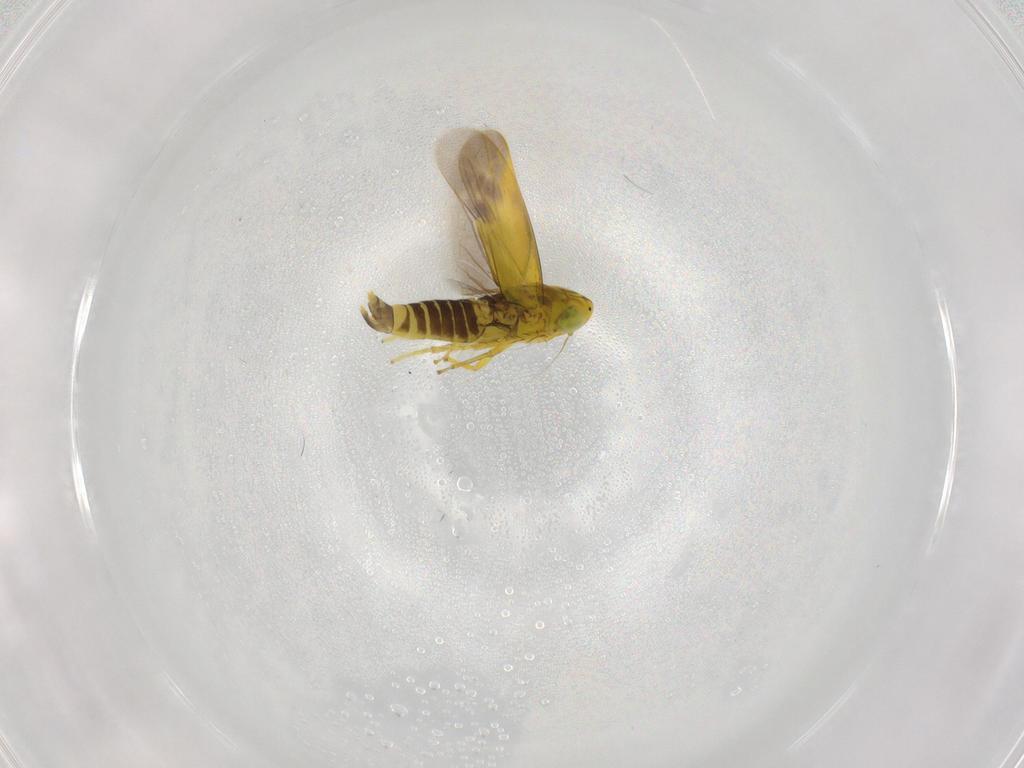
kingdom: Animalia
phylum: Arthropoda
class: Insecta
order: Hemiptera
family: Cicadellidae
